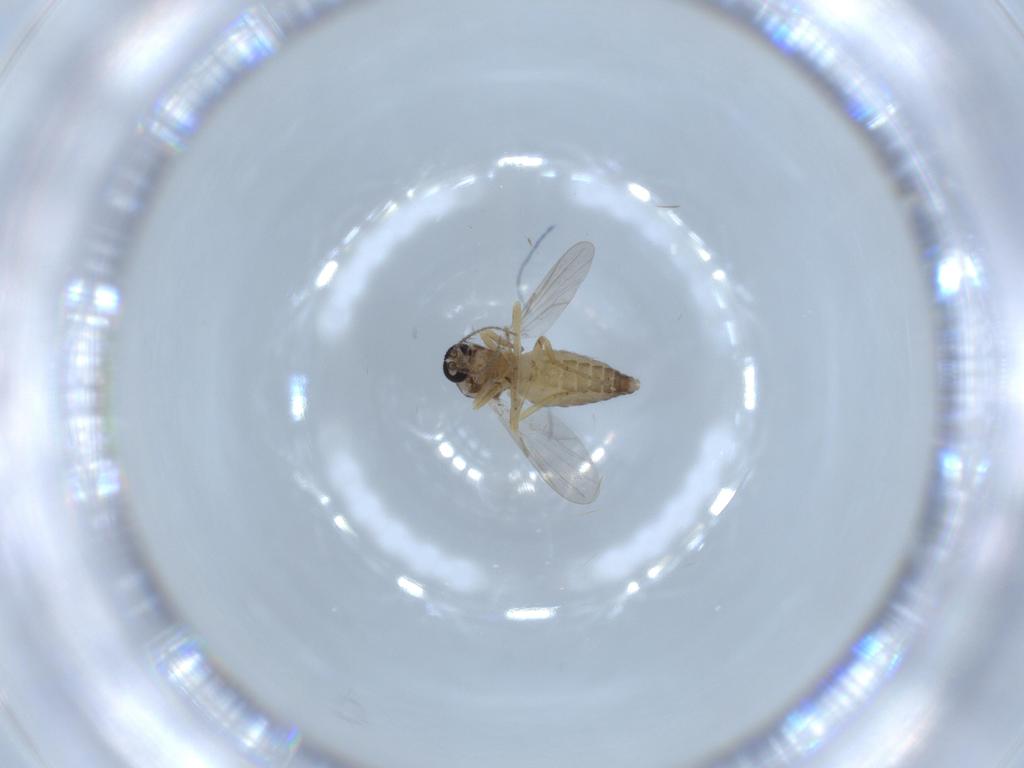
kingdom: Animalia
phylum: Arthropoda
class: Insecta
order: Diptera
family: Ceratopogonidae
